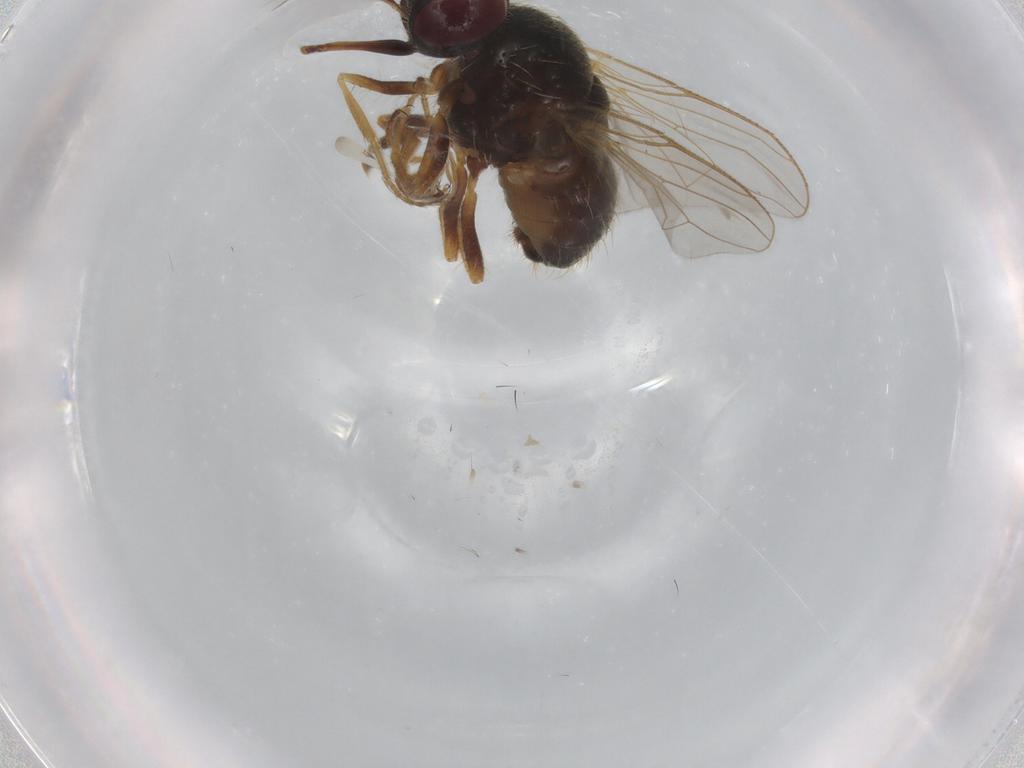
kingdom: Animalia
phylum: Arthropoda
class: Insecta
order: Diptera
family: Muscidae
